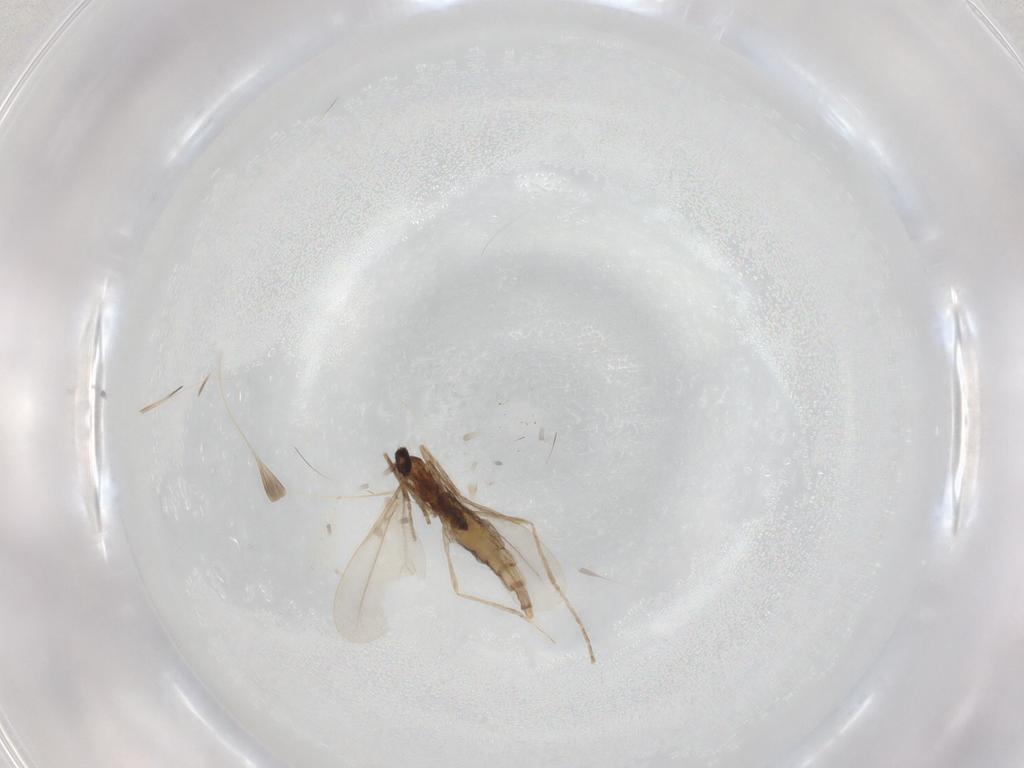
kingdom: Animalia
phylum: Arthropoda
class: Insecta
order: Diptera
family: Cecidomyiidae
